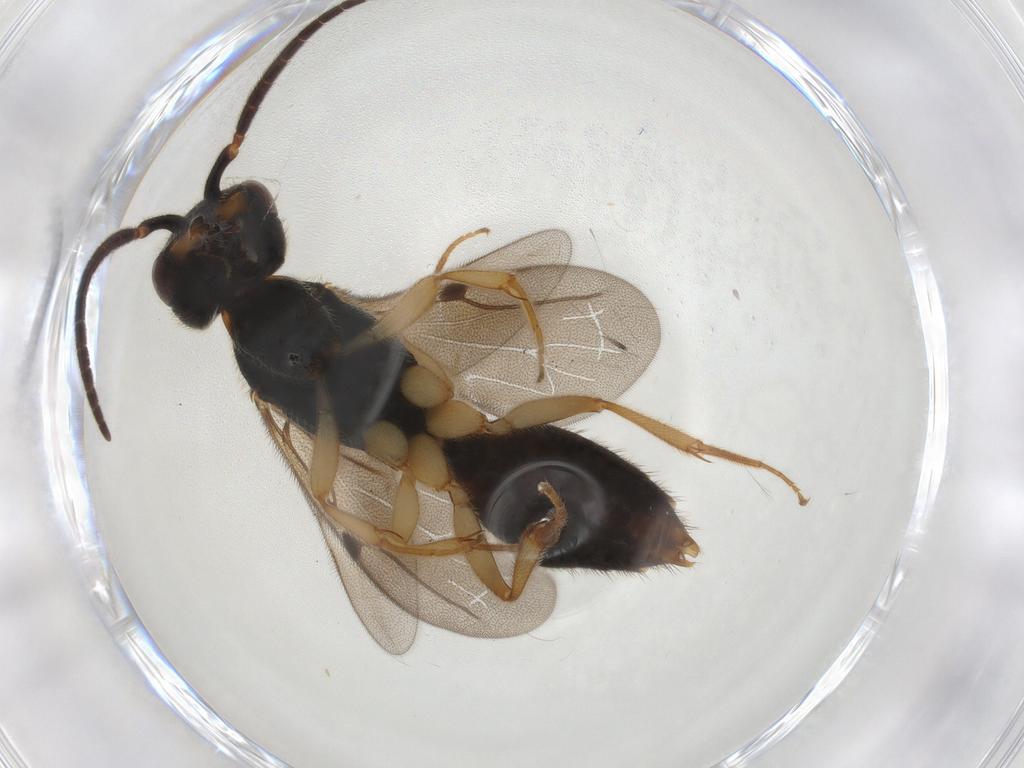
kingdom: Animalia
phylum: Arthropoda
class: Insecta
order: Hymenoptera
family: Bethylidae
